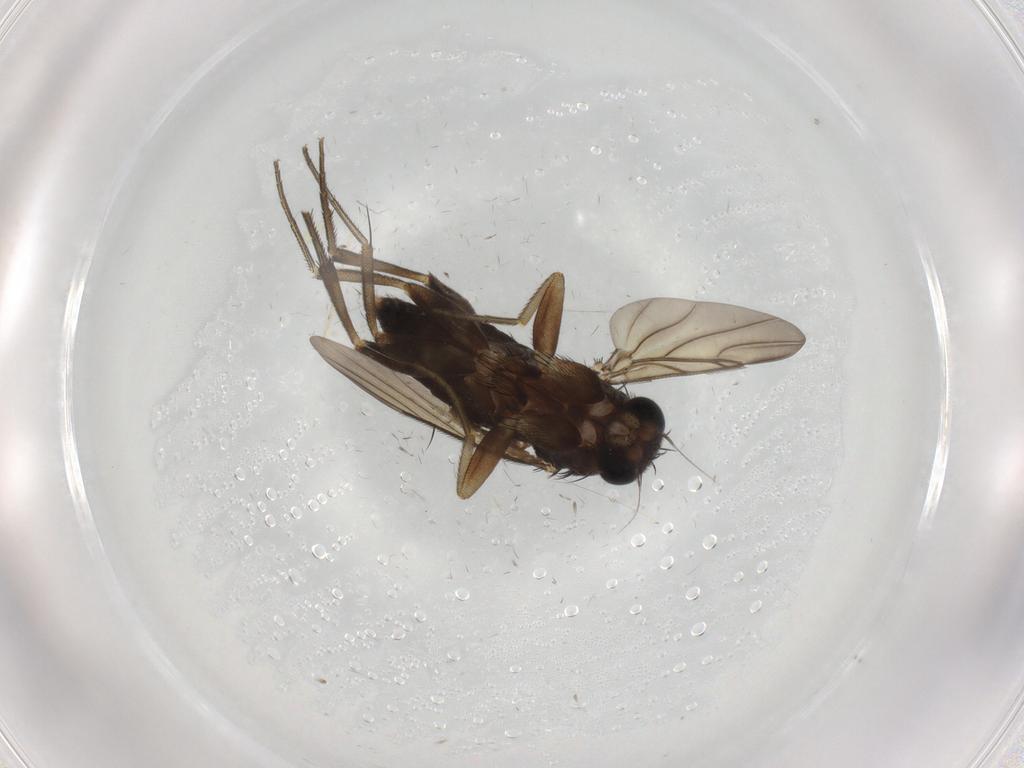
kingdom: Animalia
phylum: Arthropoda
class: Insecta
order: Diptera
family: Phoridae
